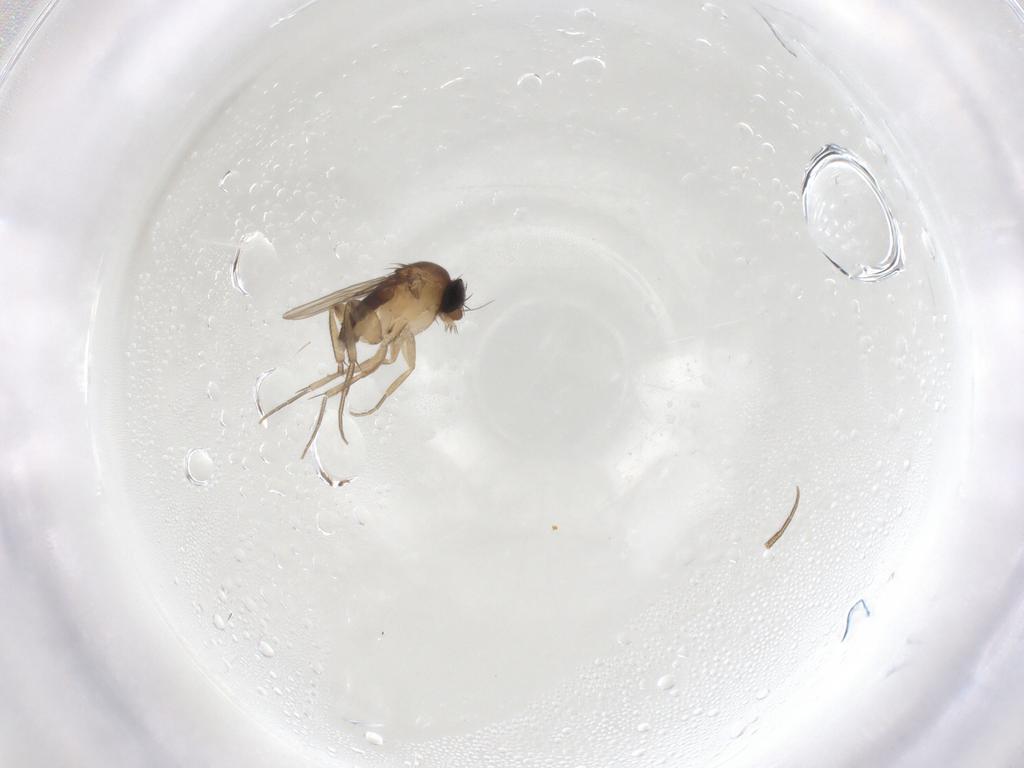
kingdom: Animalia
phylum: Arthropoda
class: Insecta
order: Diptera
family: Phoridae
